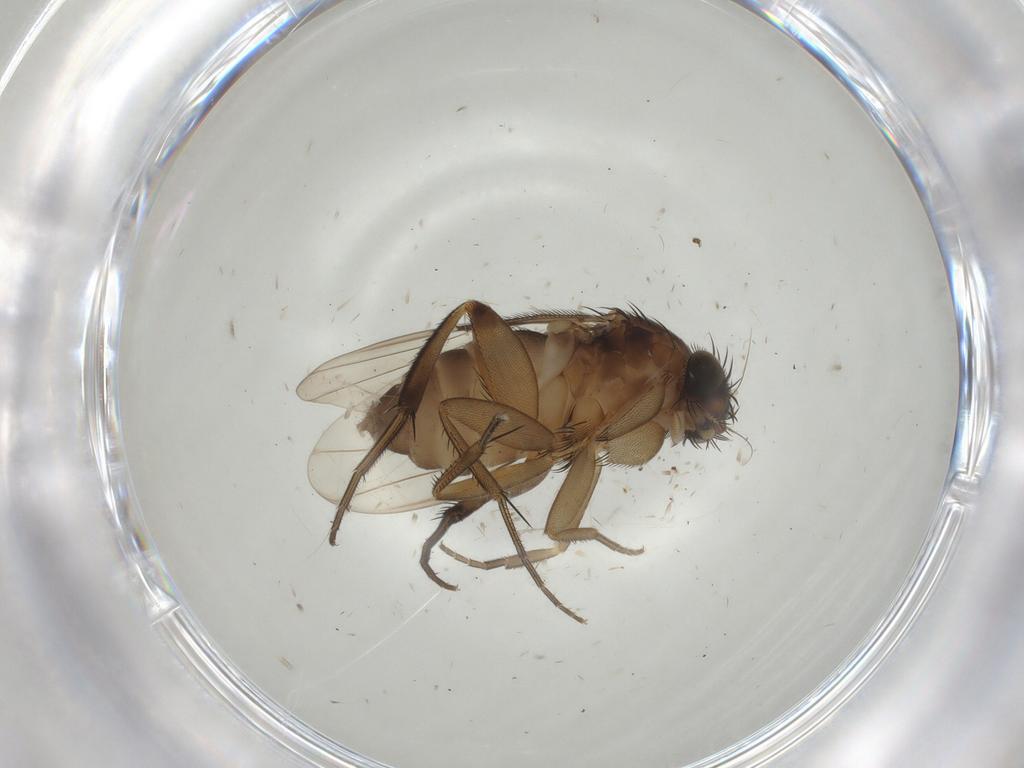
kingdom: Animalia
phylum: Arthropoda
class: Insecta
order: Diptera
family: Phoridae
